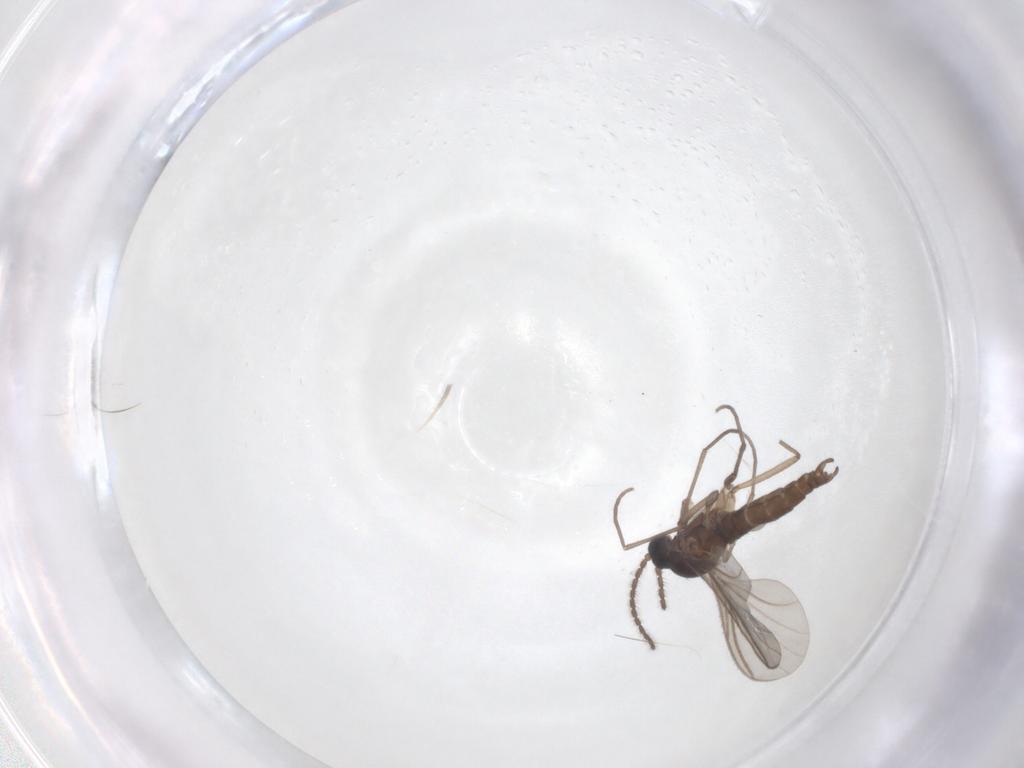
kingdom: Animalia
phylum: Arthropoda
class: Insecta
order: Diptera
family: Sciaridae
